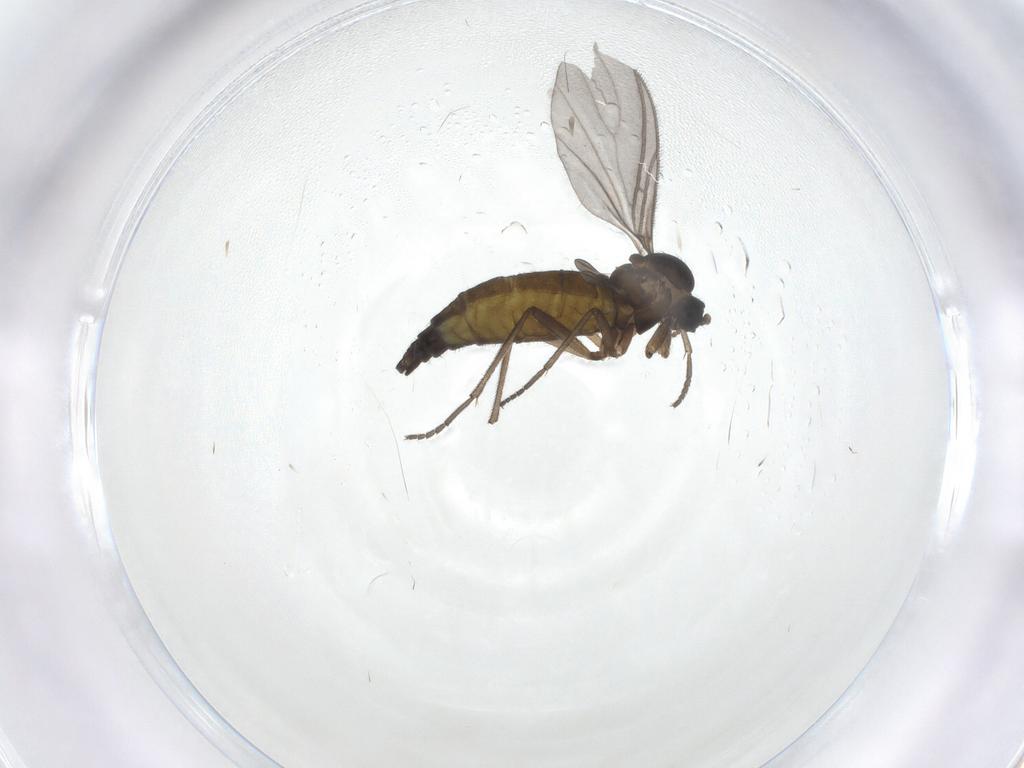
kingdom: Animalia
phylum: Arthropoda
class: Insecta
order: Diptera
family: Sciaridae
